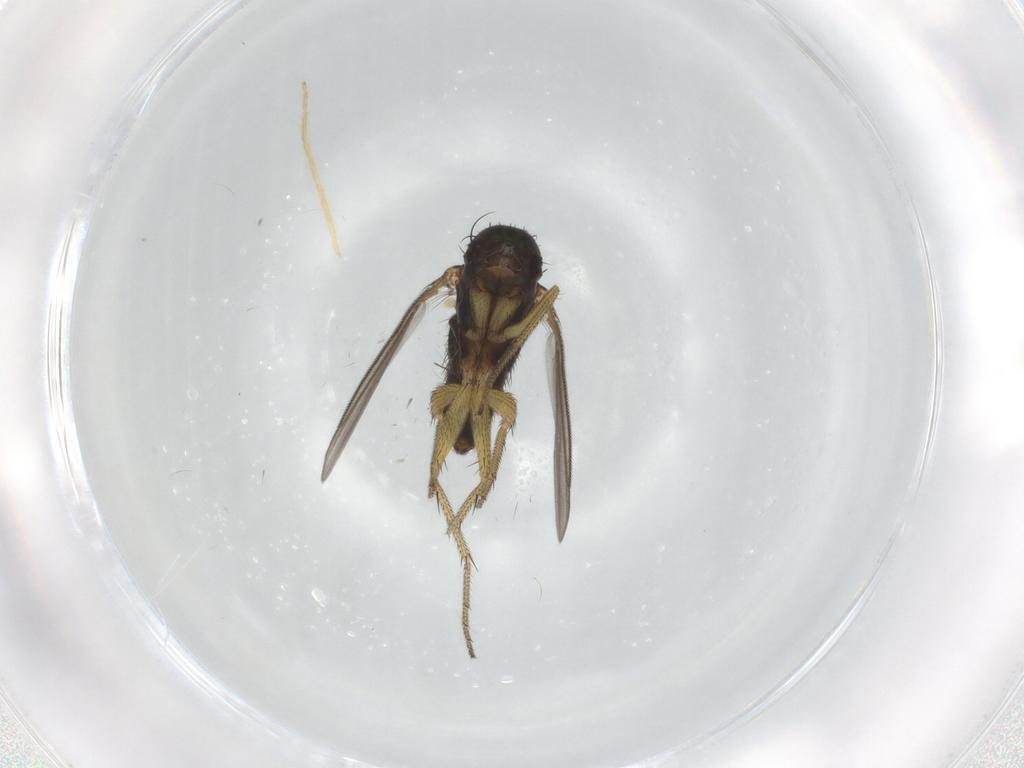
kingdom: Animalia
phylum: Arthropoda
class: Insecta
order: Diptera
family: Dolichopodidae
